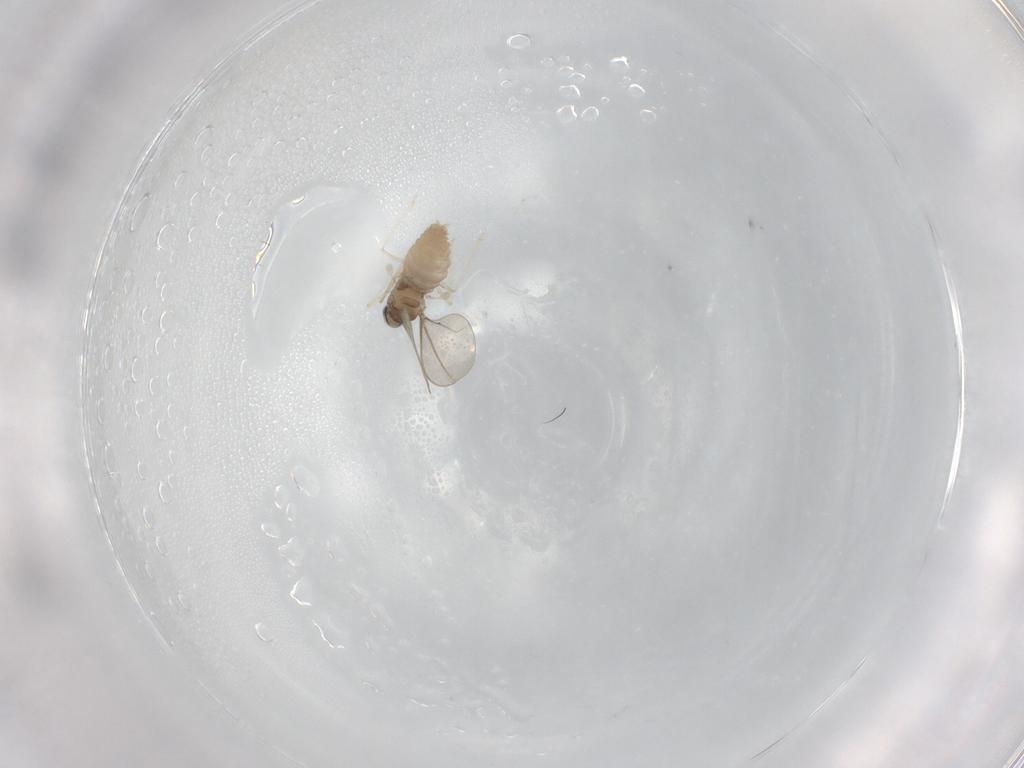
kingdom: Animalia
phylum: Arthropoda
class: Insecta
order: Diptera
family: Cecidomyiidae
